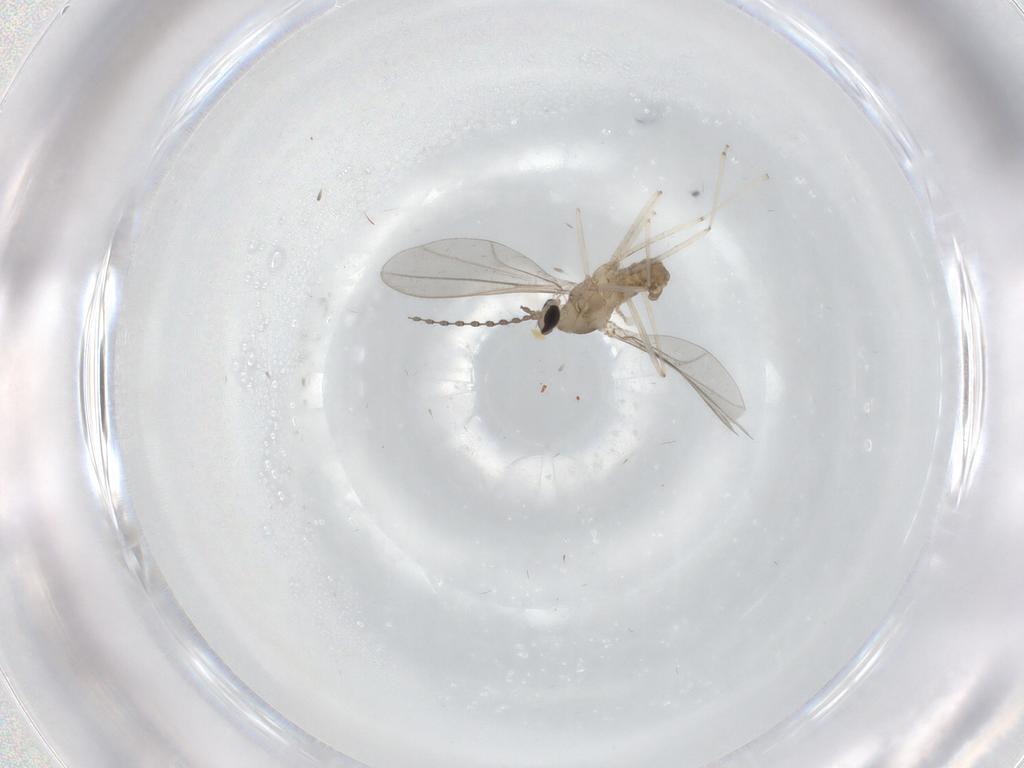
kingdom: Animalia
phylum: Arthropoda
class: Insecta
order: Diptera
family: Cecidomyiidae
